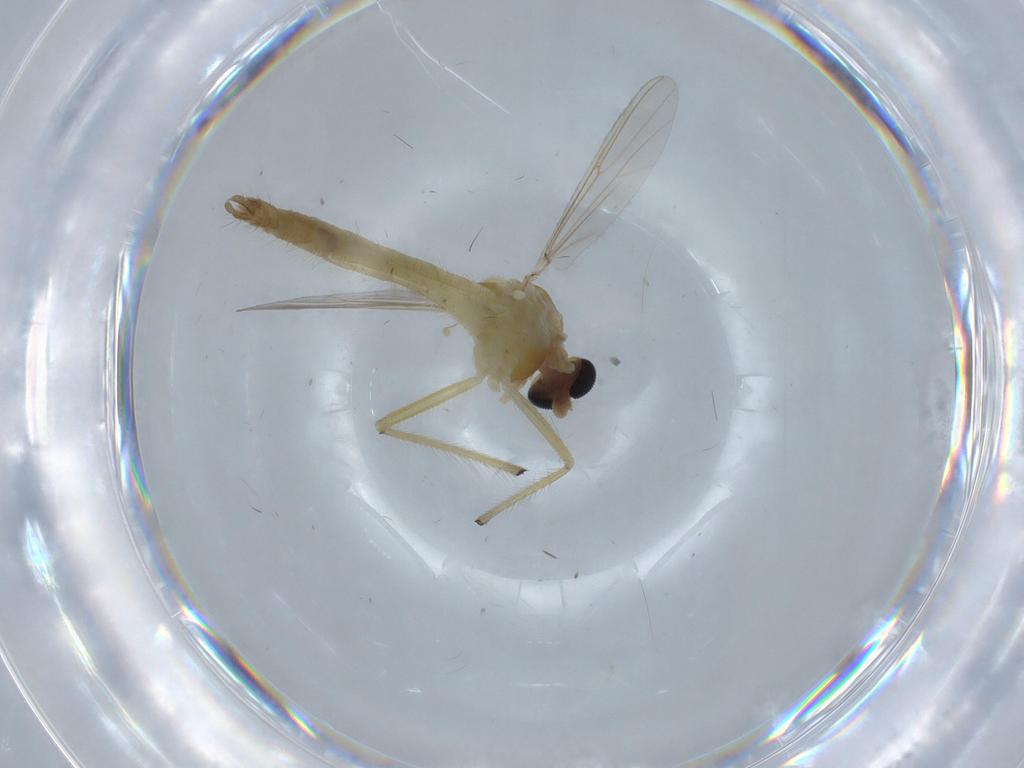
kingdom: Animalia
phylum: Arthropoda
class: Insecta
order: Diptera
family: Chironomidae
